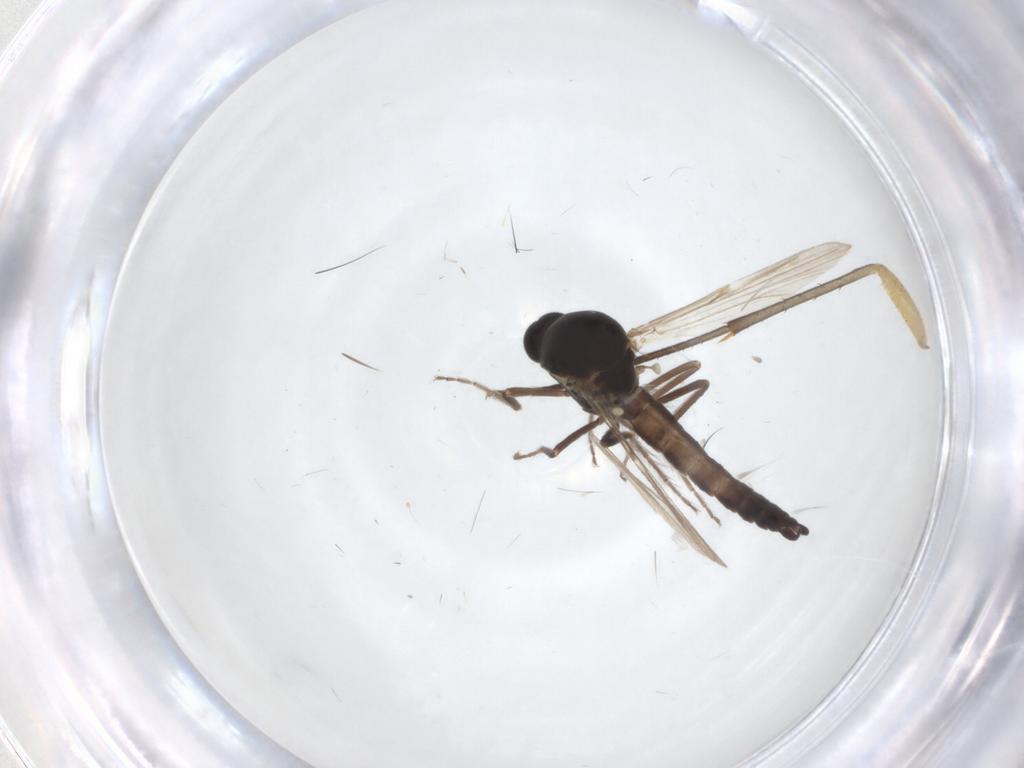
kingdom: Animalia
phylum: Arthropoda
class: Insecta
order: Diptera
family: Ceratopogonidae
